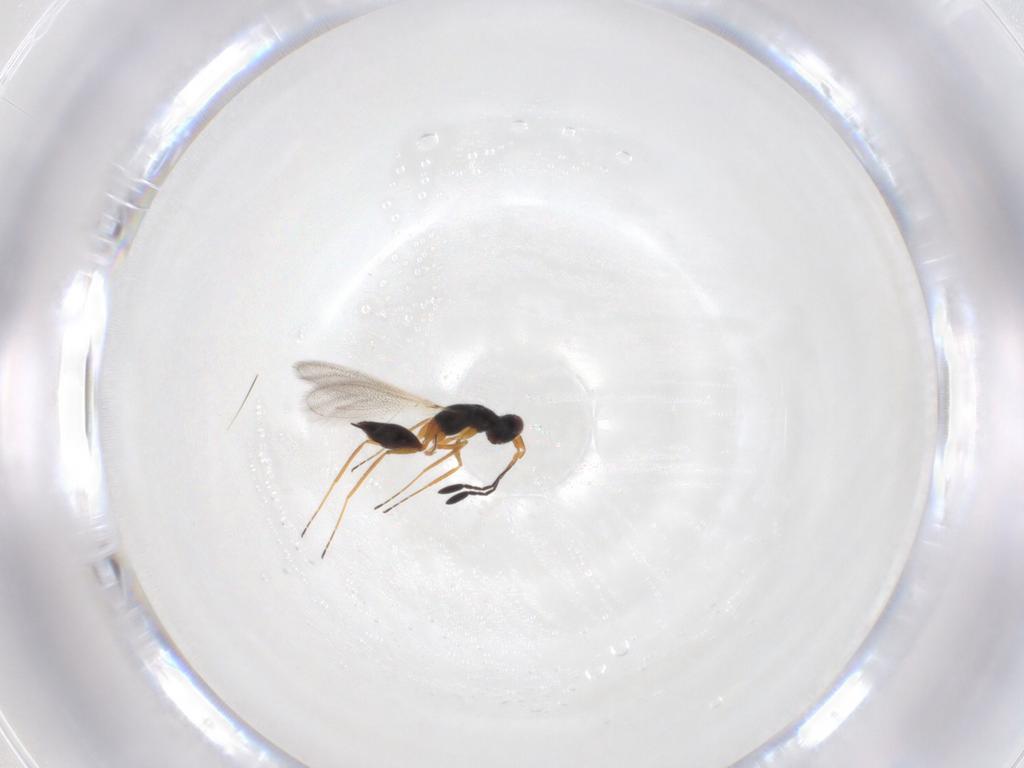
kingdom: Animalia
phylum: Arthropoda
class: Insecta
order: Hymenoptera
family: Eulophidae
